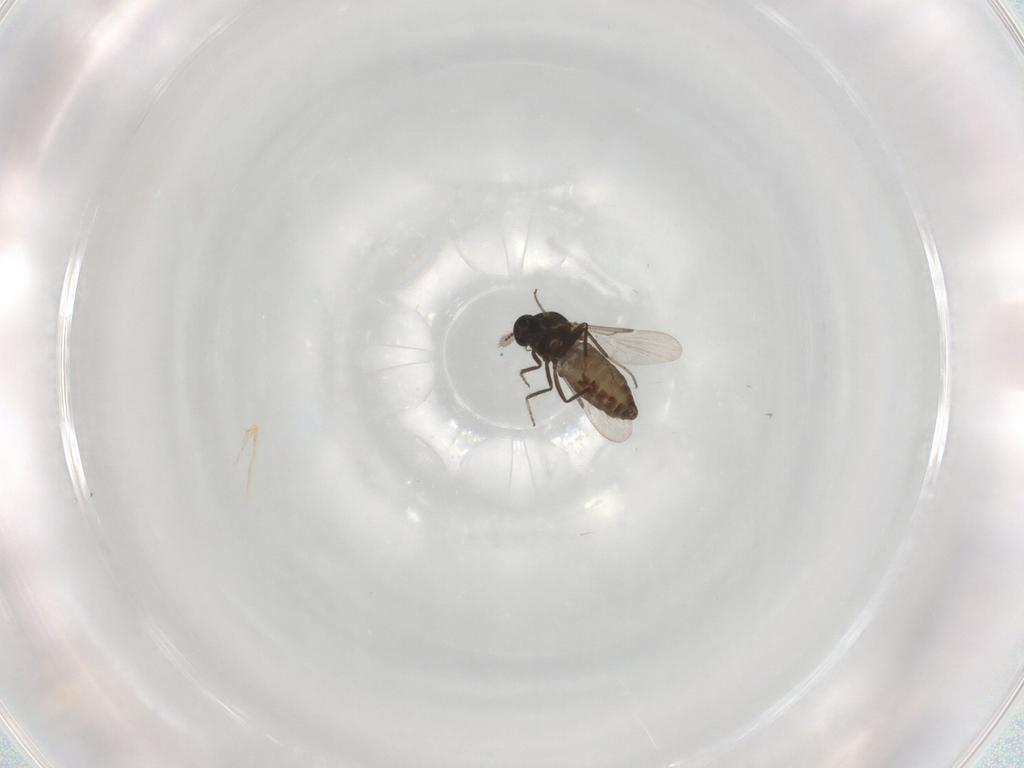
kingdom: Animalia
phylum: Arthropoda
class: Insecta
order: Diptera
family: Ceratopogonidae
